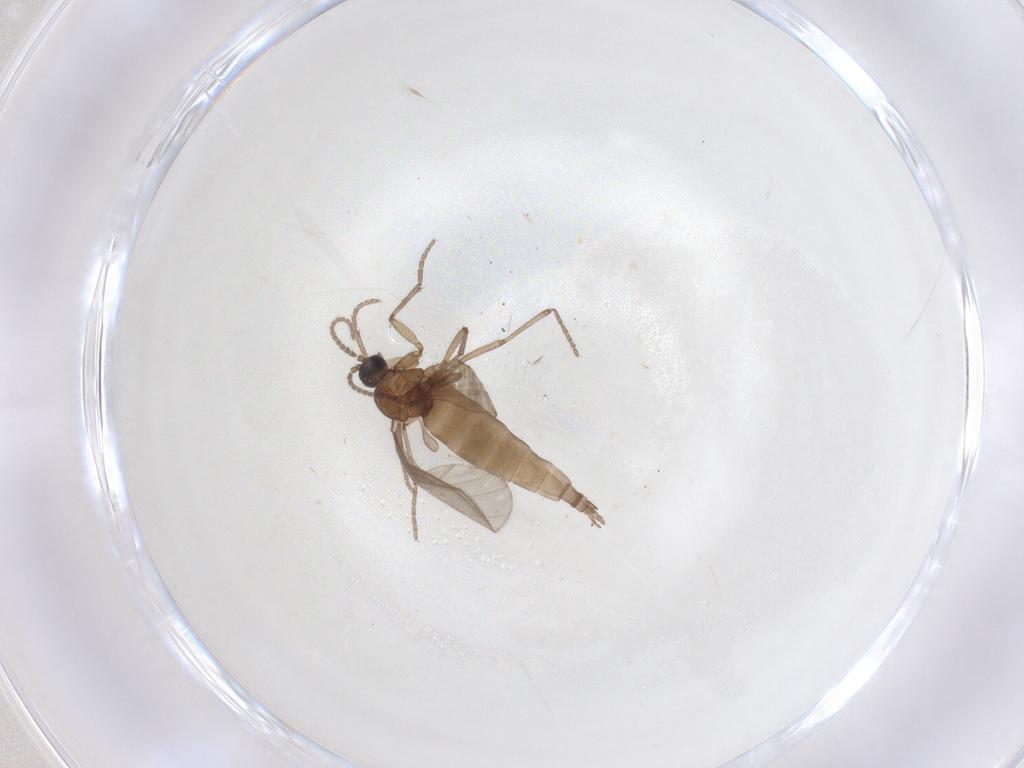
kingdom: Animalia
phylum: Arthropoda
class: Insecta
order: Diptera
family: Sciaridae
